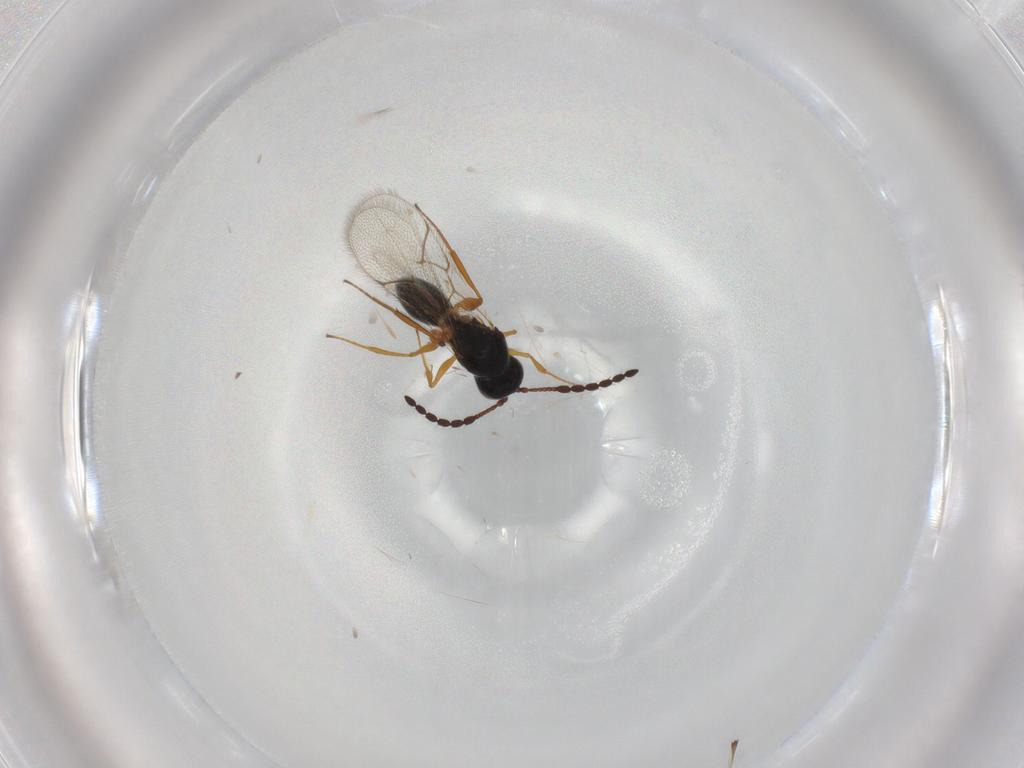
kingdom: Animalia
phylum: Arthropoda
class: Insecta
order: Hymenoptera
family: Figitidae
